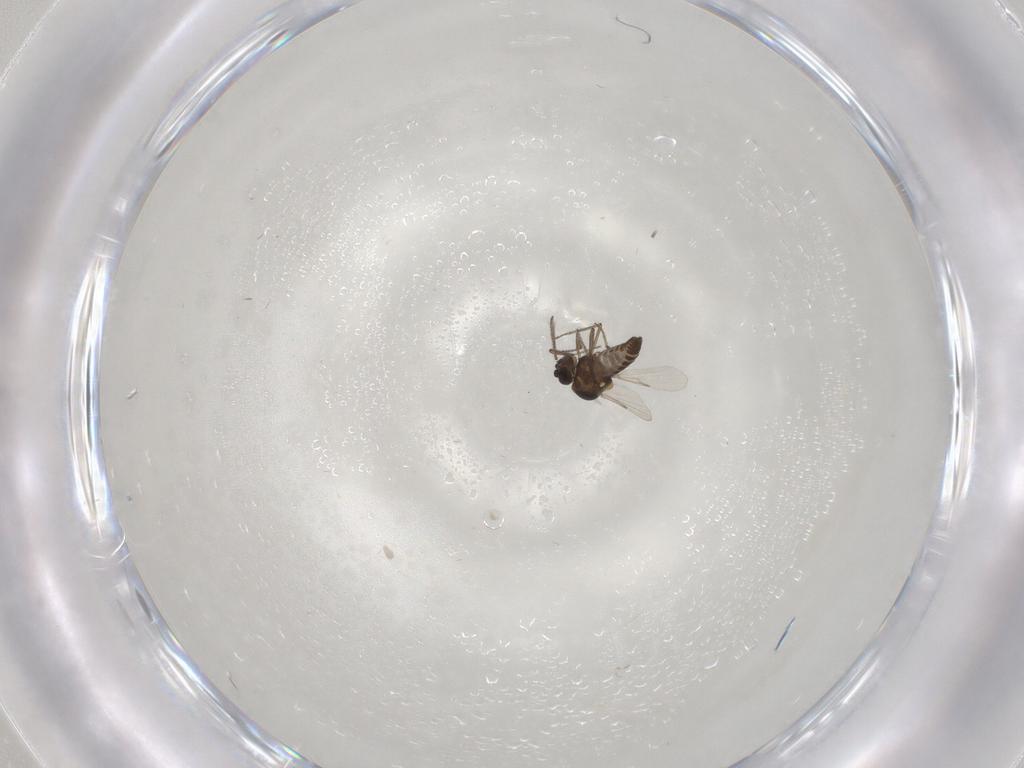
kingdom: Animalia
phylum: Arthropoda
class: Insecta
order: Diptera
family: Ceratopogonidae
